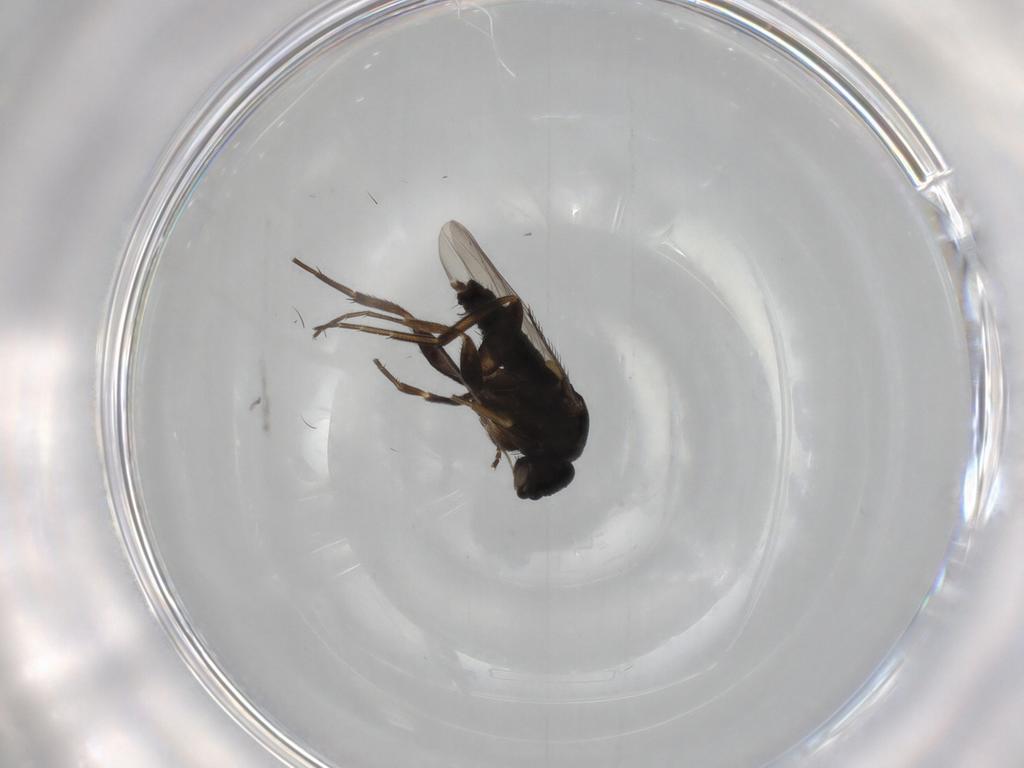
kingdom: Animalia
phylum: Arthropoda
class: Insecta
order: Diptera
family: Phoridae
